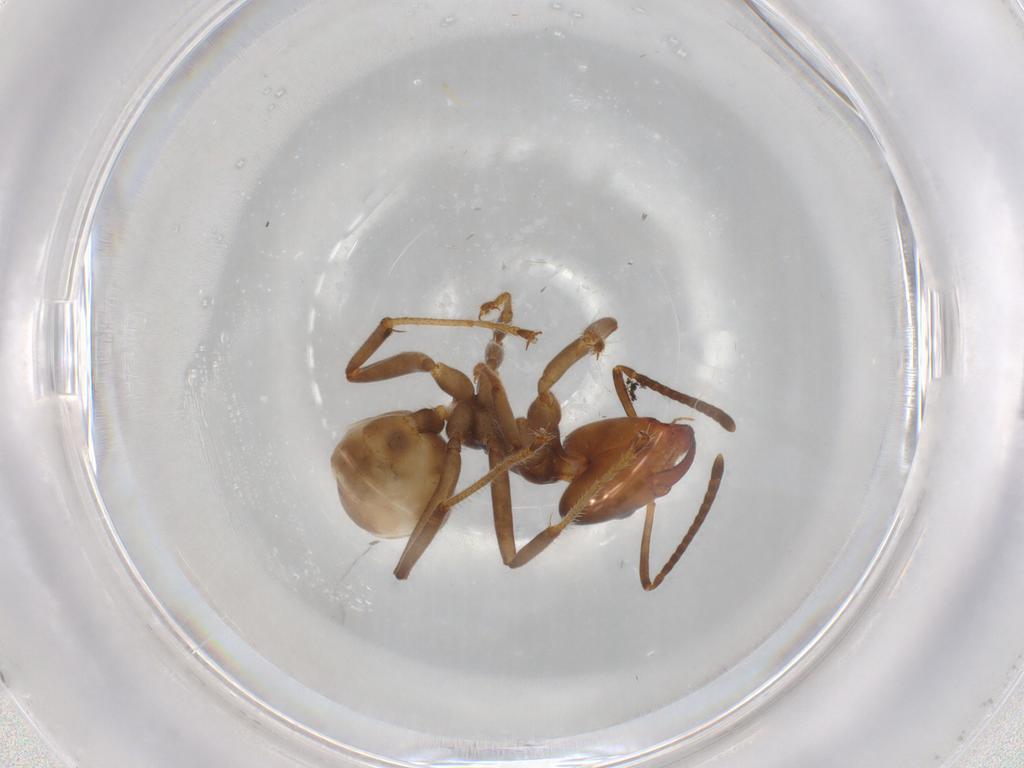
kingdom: Animalia
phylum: Arthropoda
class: Insecta
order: Hymenoptera
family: Formicidae
